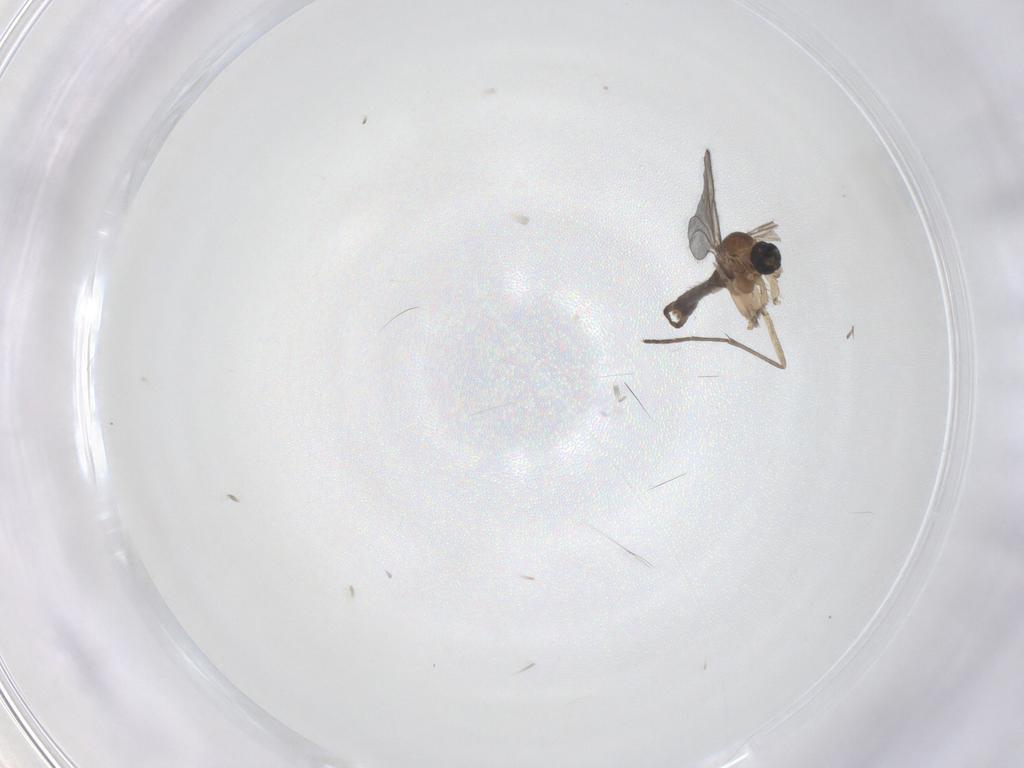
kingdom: Animalia
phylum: Arthropoda
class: Insecta
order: Diptera
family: Sciaridae
